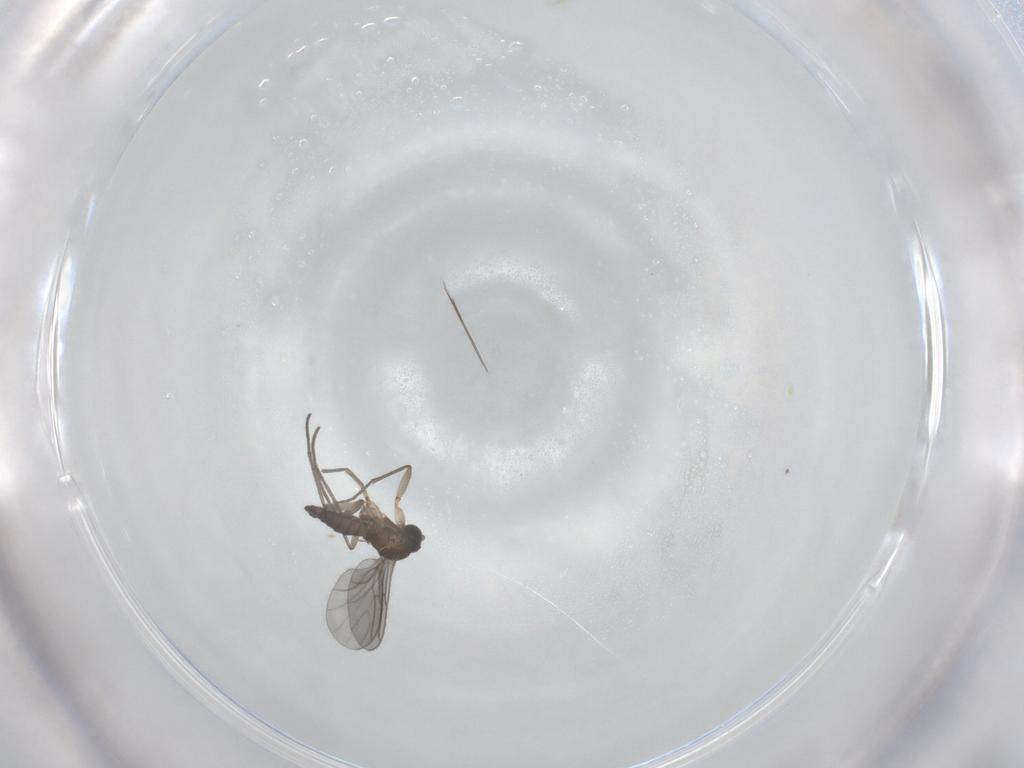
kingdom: Animalia
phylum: Arthropoda
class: Insecta
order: Diptera
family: Sciaridae
